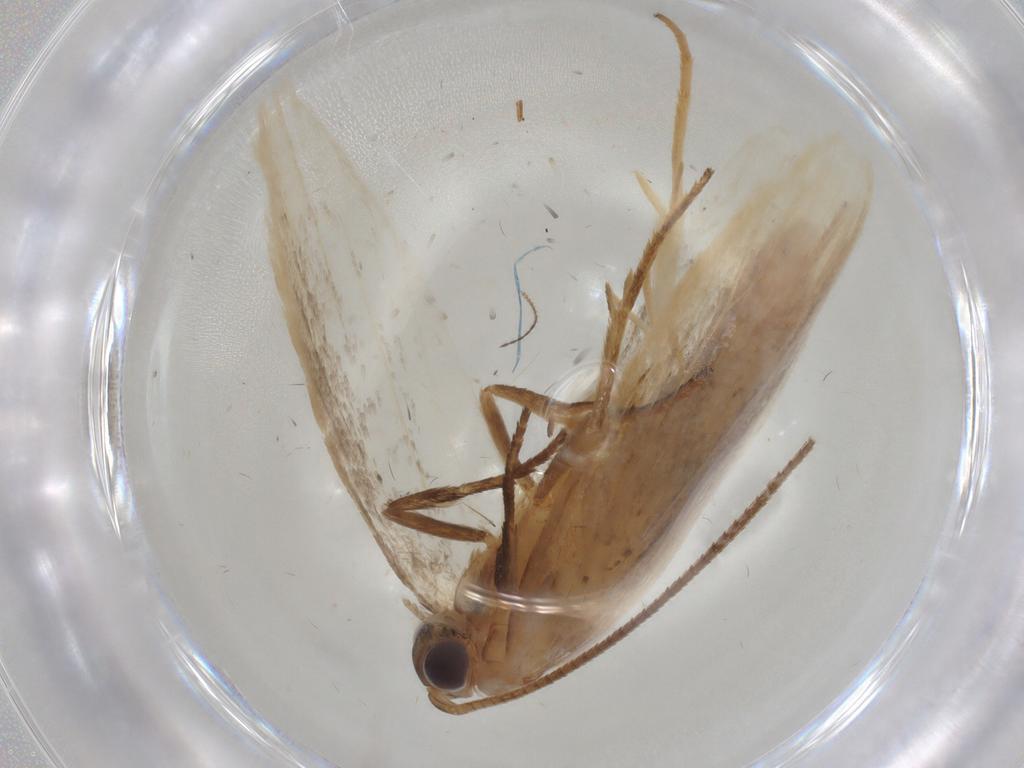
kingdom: Animalia
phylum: Arthropoda
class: Insecta
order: Lepidoptera
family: Gelechiidae
